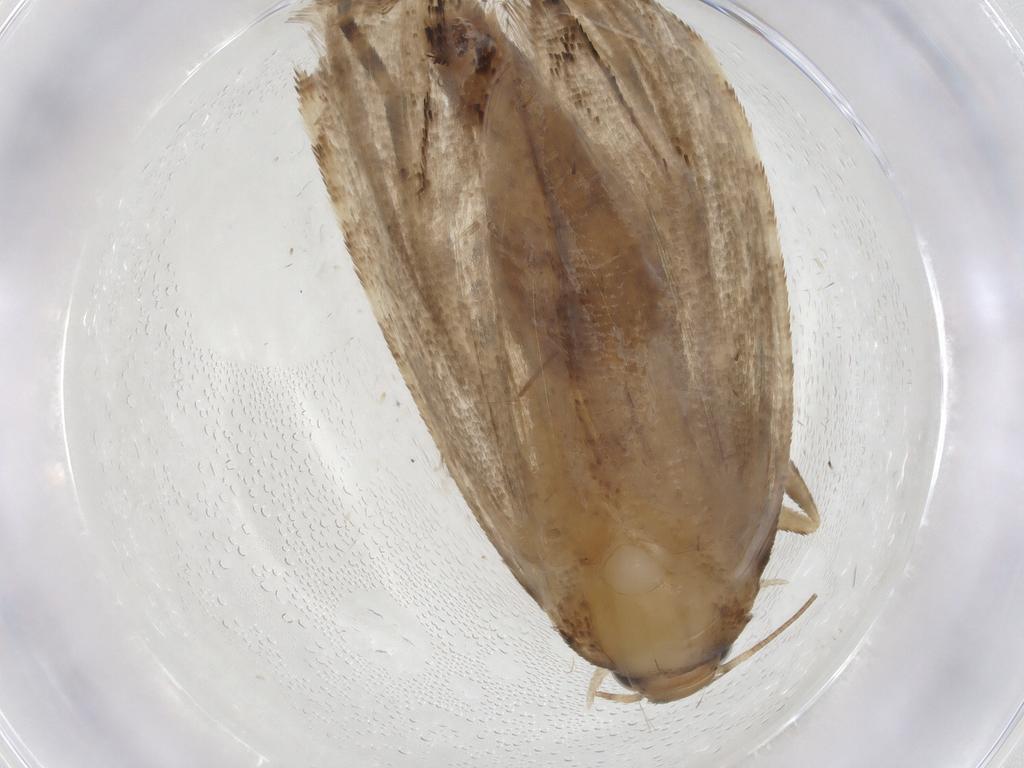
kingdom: Animalia
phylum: Arthropoda
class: Insecta
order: Lepidoptera
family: Glyphipterigidae
